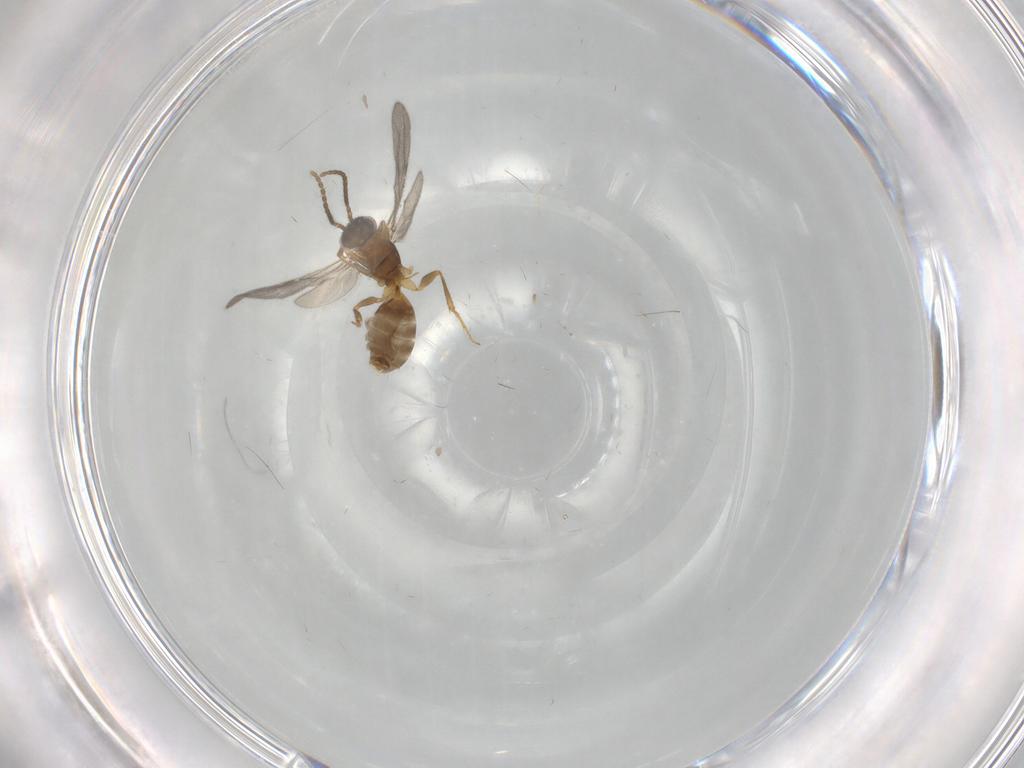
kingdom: Animalia
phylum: Arthropoda
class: Insecta
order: Hymenoptera
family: Bethylidae
